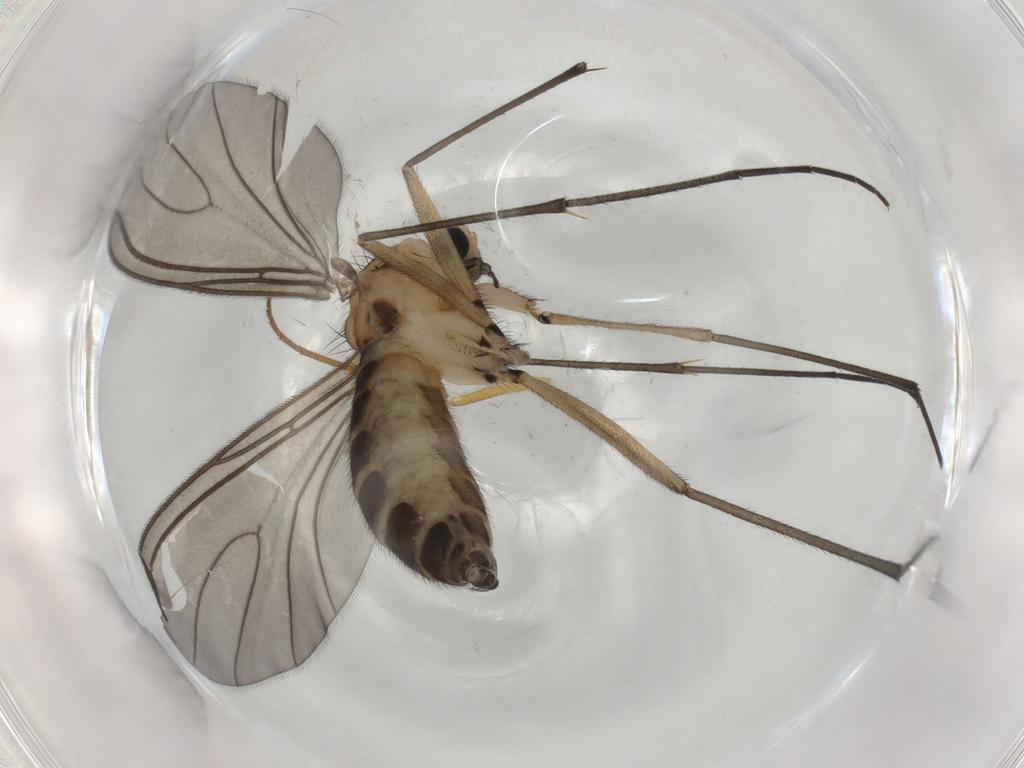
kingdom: Animalia
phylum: Arthropoda
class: Insecta
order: Diptera
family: Sciaridae
